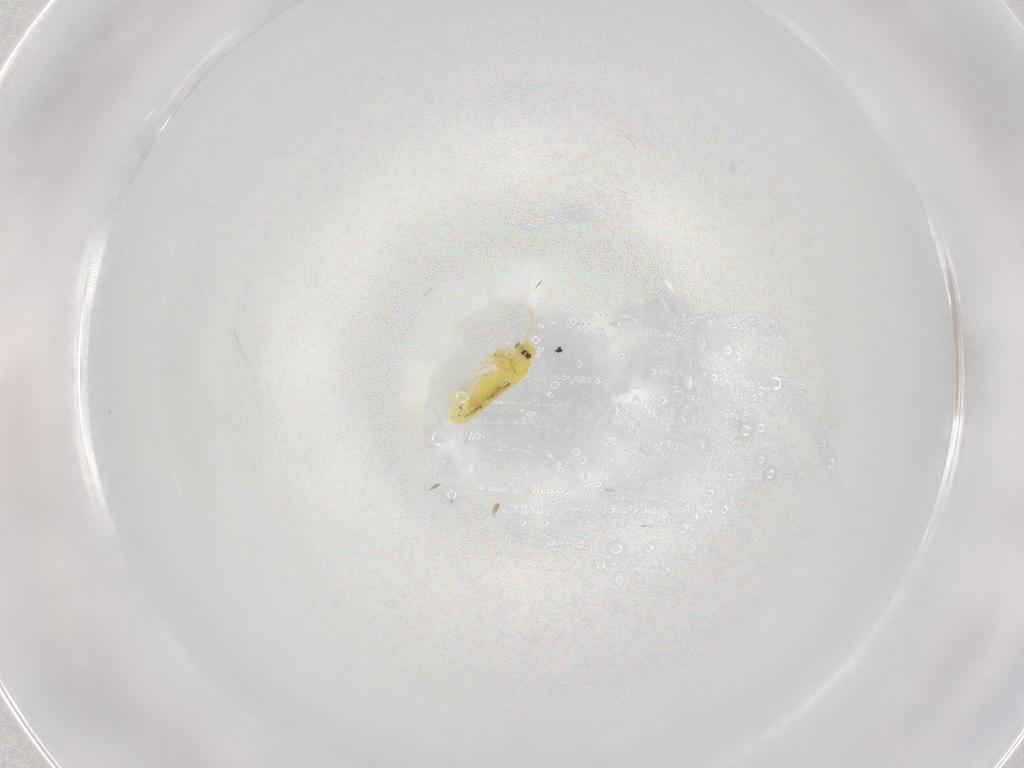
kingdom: Animalia
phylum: Arthropoda
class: Insecta
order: Hemiptera
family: Aleyrodidae
